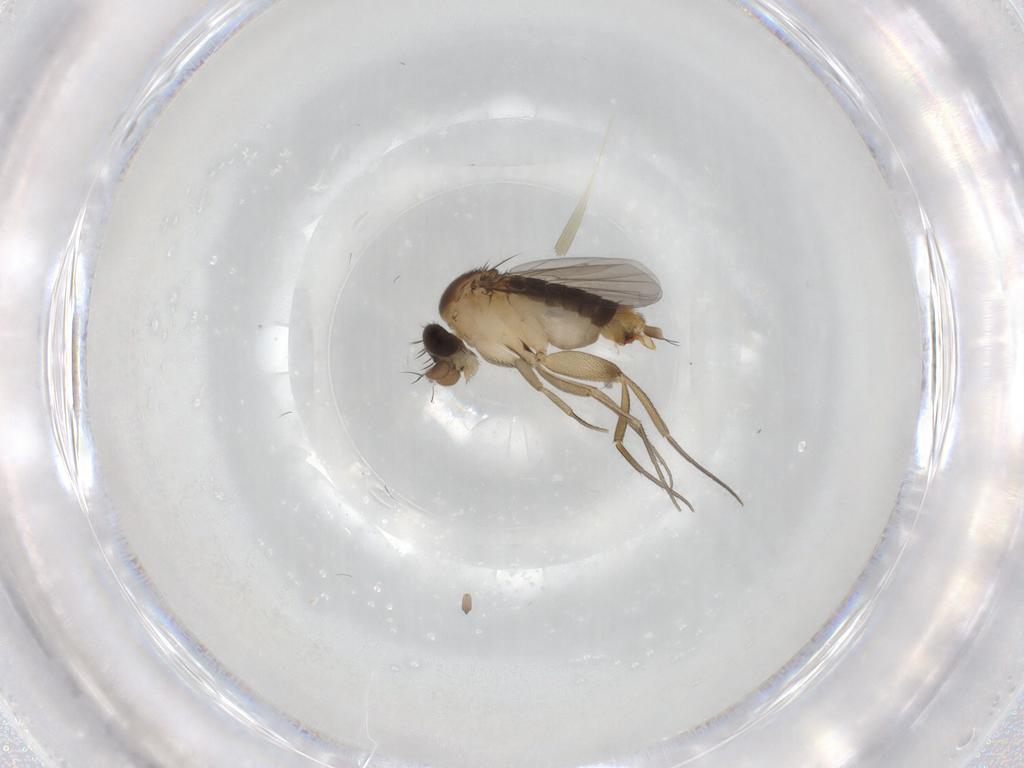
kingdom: Animalia
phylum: Arthropoda
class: Insecta
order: Diptera
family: Phoridae
